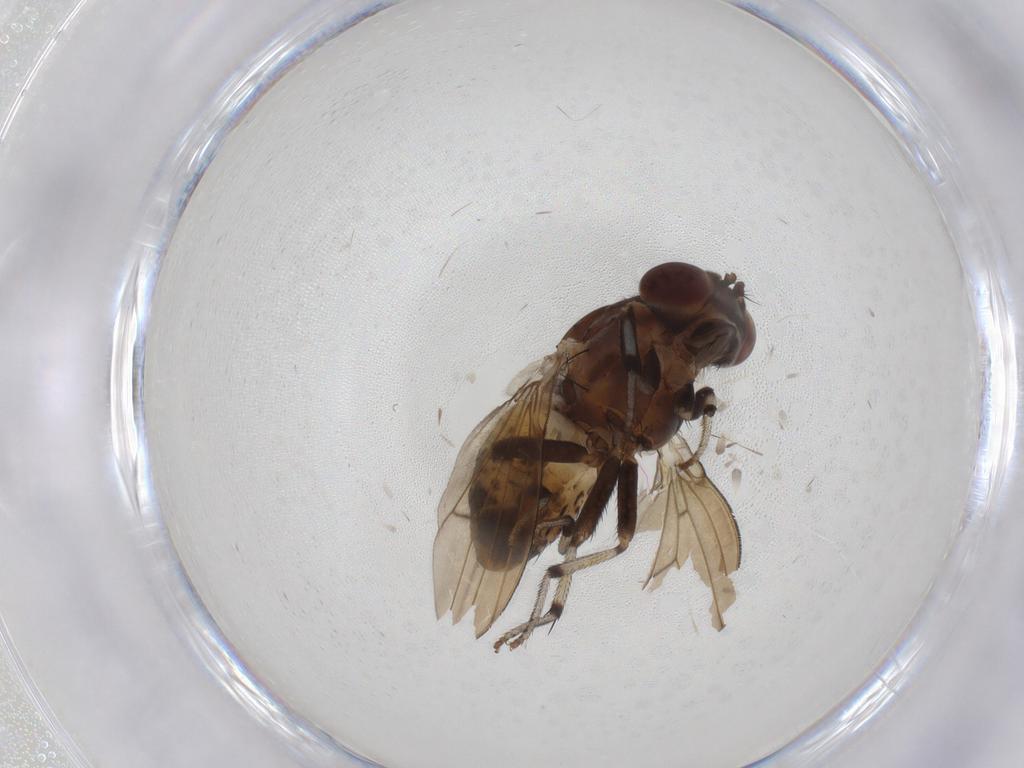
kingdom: Animalia
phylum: Arthropoda
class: Insecta
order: Diptera
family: Lauxaniidae
